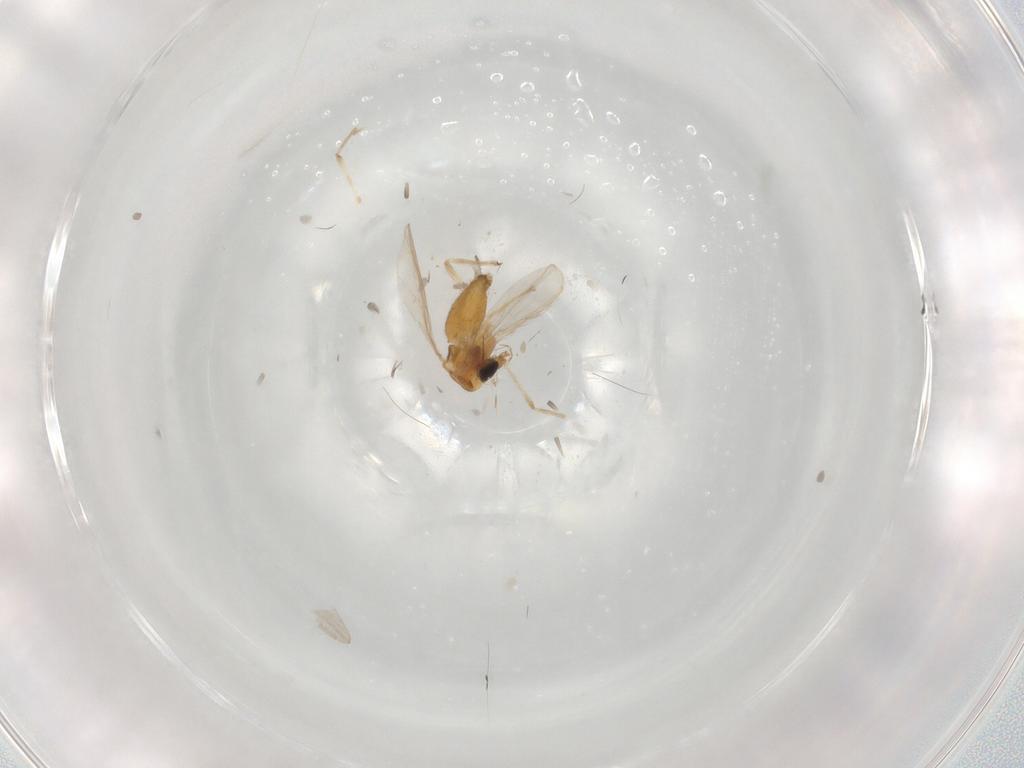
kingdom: Animalia
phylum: Arthropoda
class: Insecta
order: Diptera
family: Chironomidae
